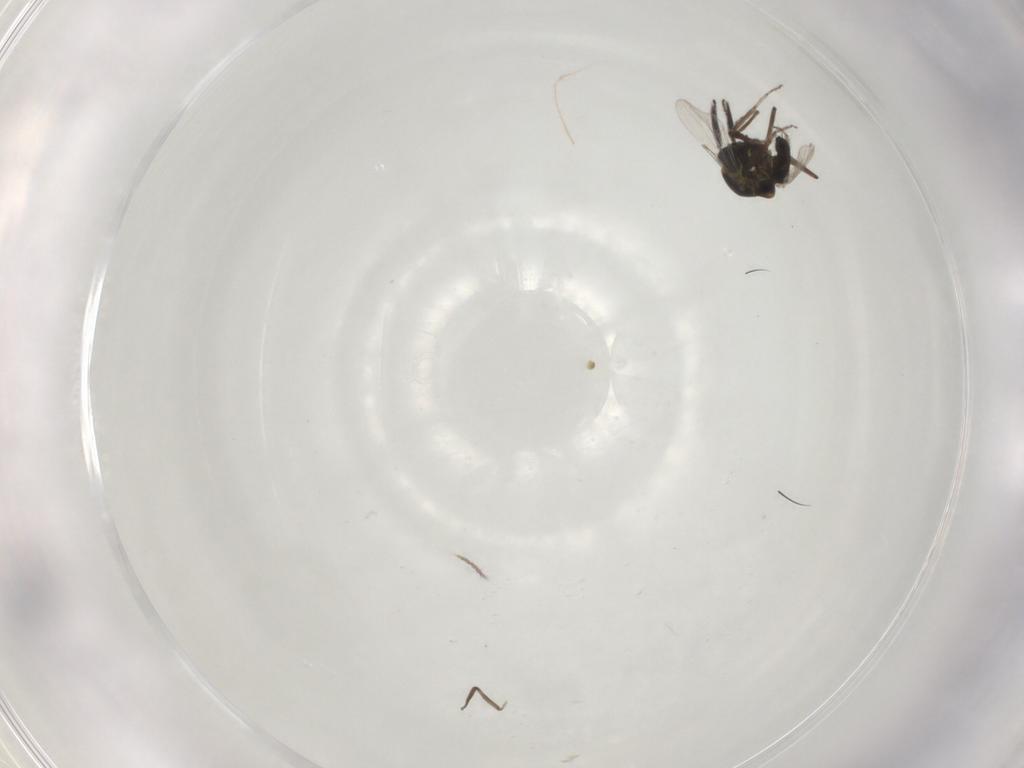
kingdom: Animalia
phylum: Arthropoda
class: Insecta
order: Diptera
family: Ceratopogonidae
